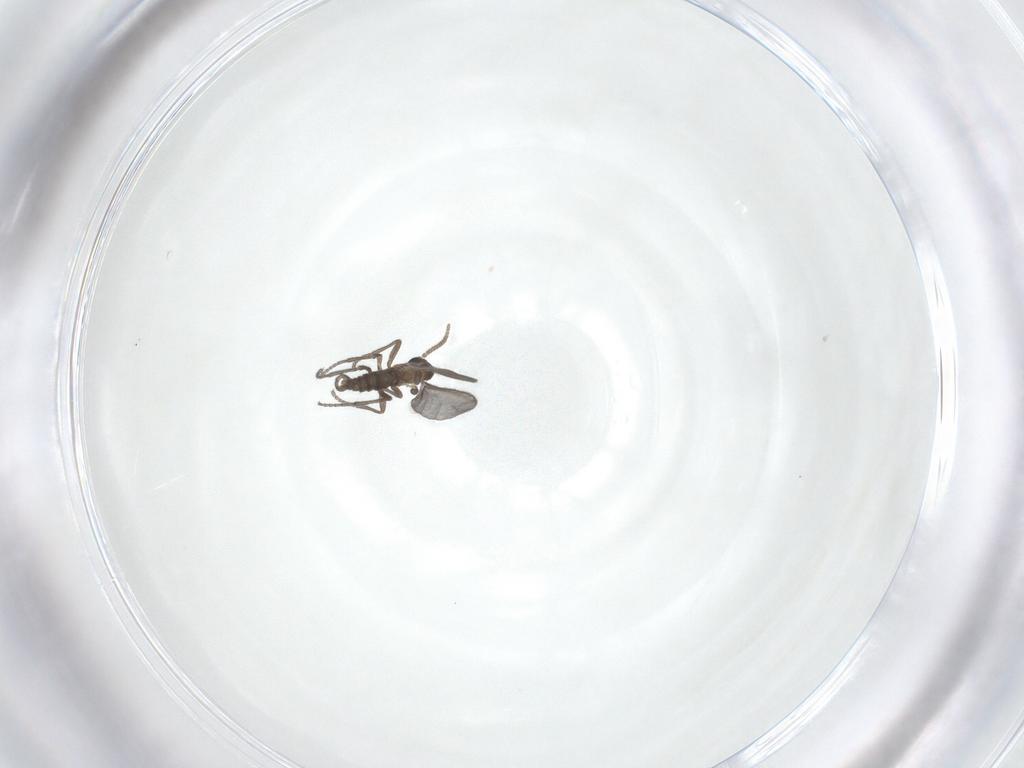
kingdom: Animalia
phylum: Arthropoda
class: Insecta
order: Diptera
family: Sciaridae
